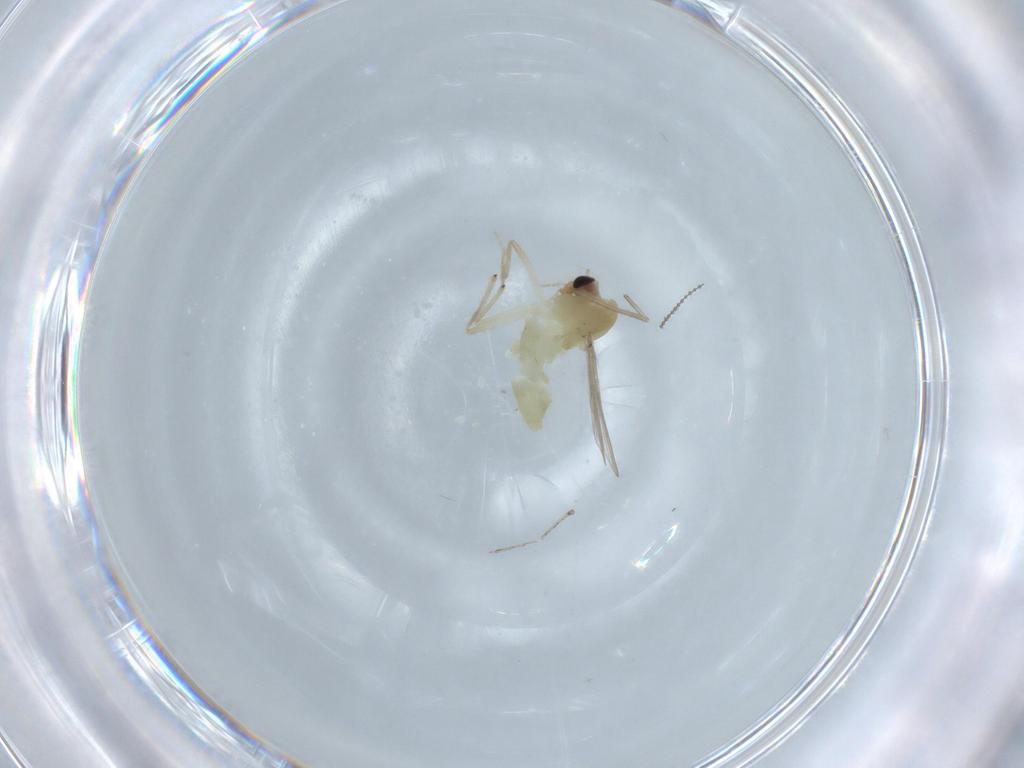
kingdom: Animalia
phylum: Arthropoda
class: Insecta
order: Diptera
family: Chironomidae
